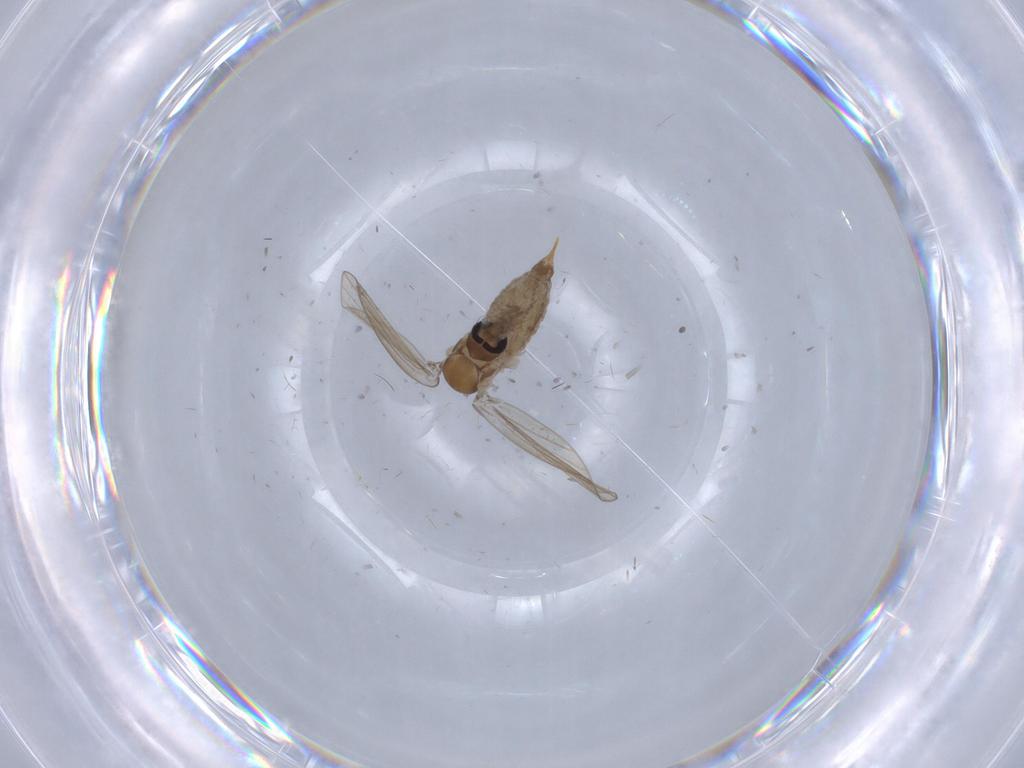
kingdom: Animalia
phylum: Arthropoda
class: Insecta
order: Diptera
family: Psychodidae
